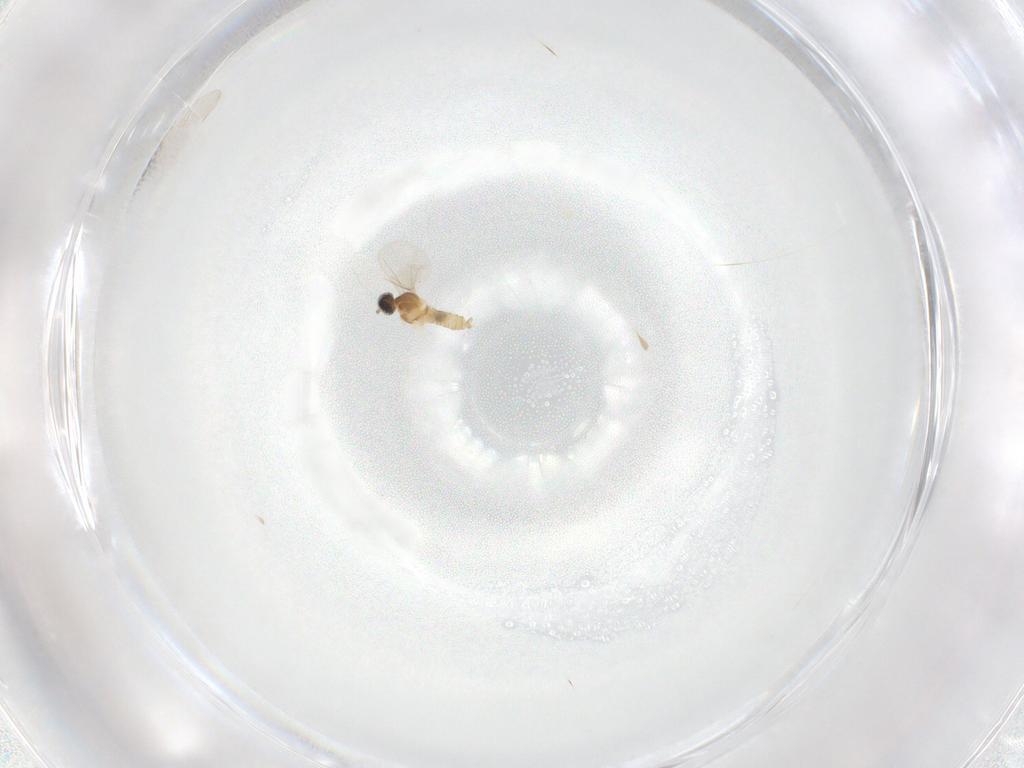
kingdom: Animalia
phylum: Arthropoda
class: Insecta
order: Diptera
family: Cecidomyiidae
